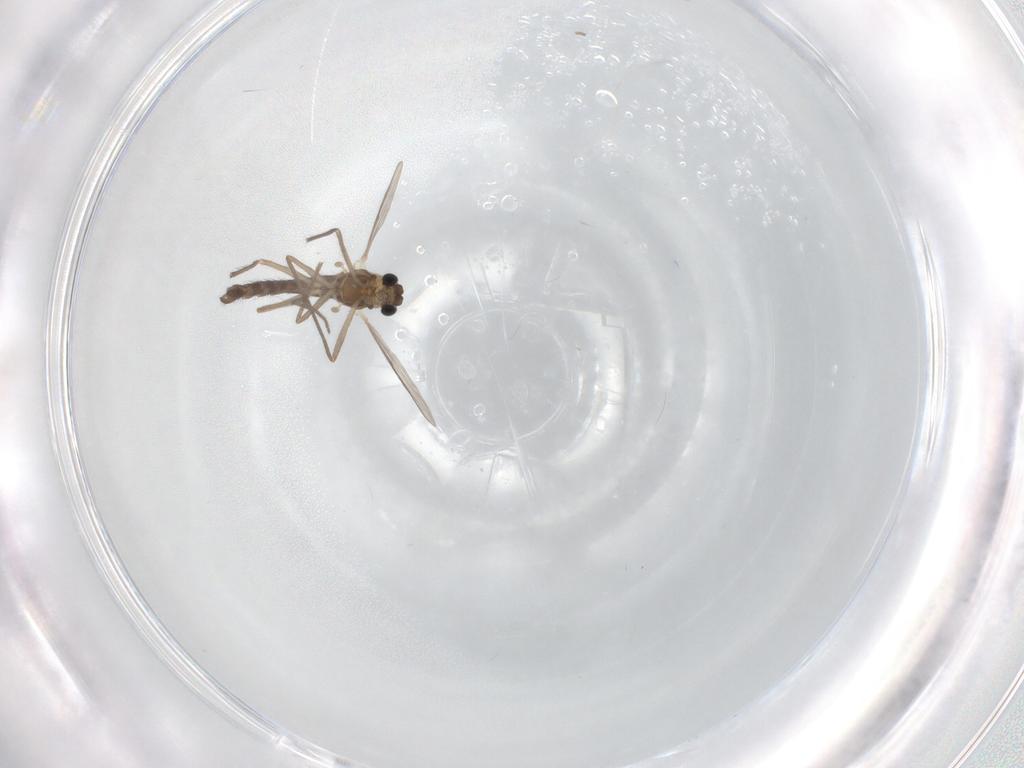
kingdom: Animalia
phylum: Arthropoda
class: Insecta
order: Diptera
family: Chironomidae
